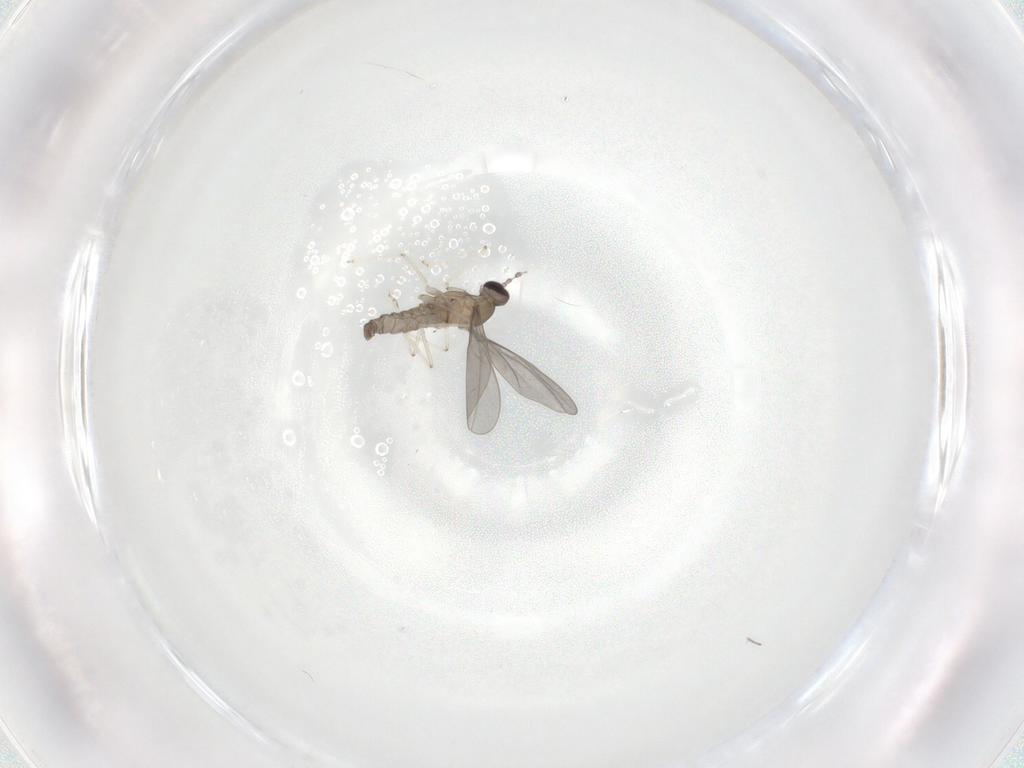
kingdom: Animalia
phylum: Arthropoda
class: Insecta
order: Diptera
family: Cecidomyiidae
